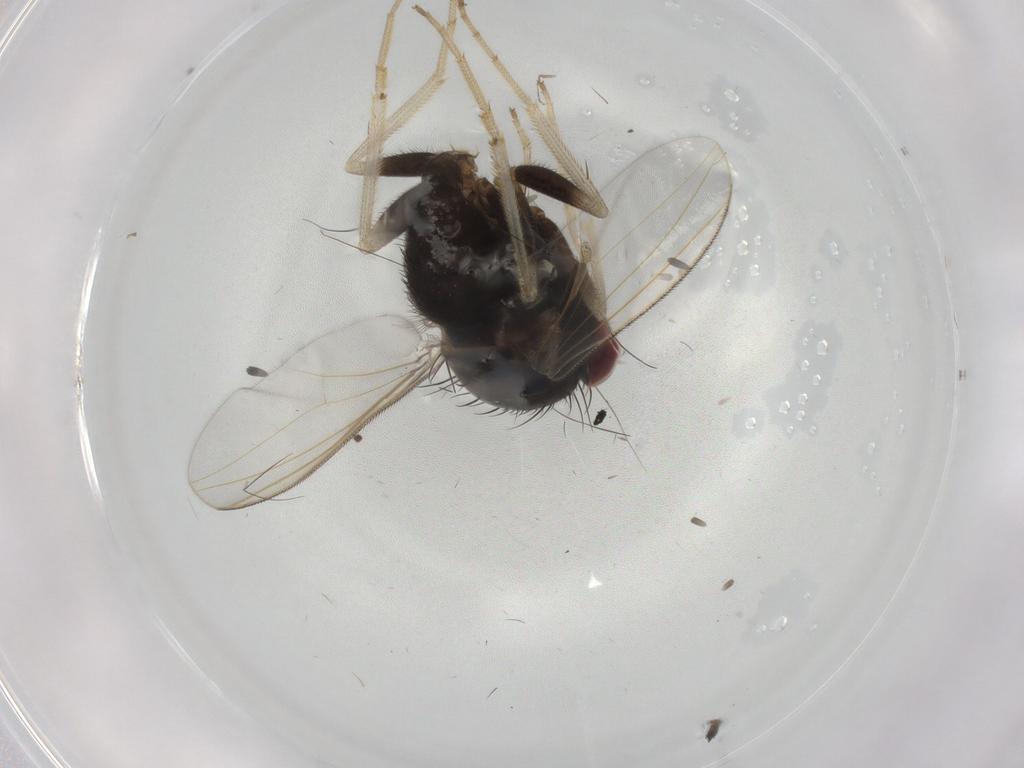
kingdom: Animalia
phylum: Arthropoda
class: Insecta
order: Diptera
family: Dolichopodidae
